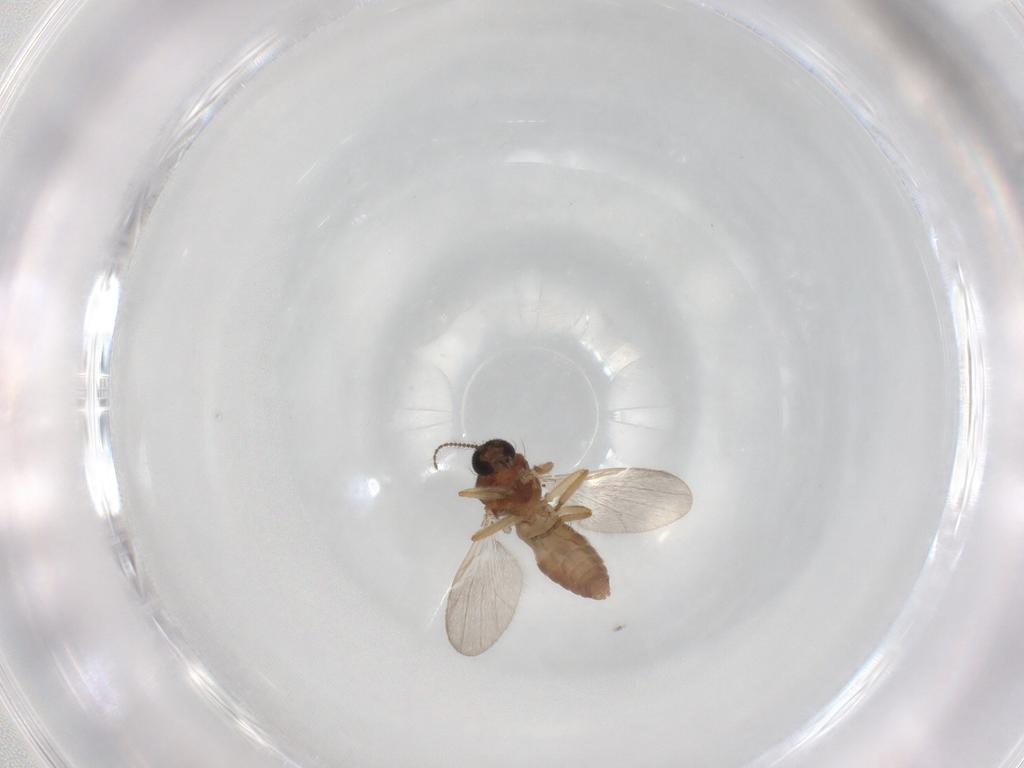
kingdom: Animalia
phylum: Arthropoda
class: Insecta
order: Diptera
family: Ceratopogonidae
